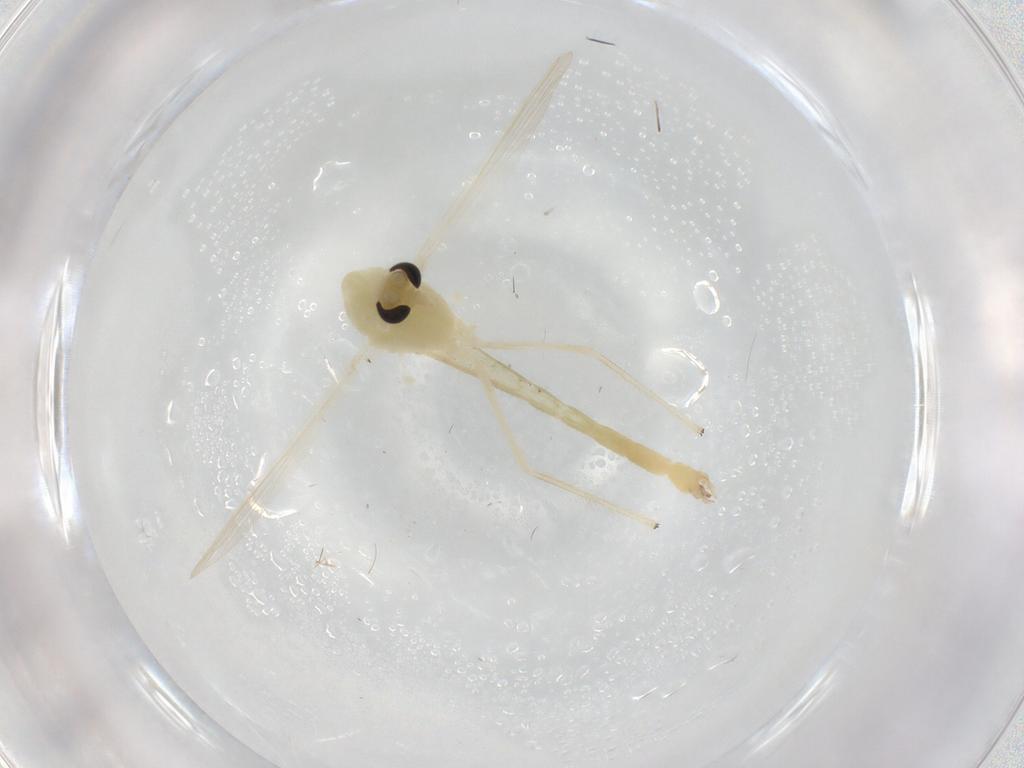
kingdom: Animalia
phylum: Arthropoda
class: Insecta
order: Diptera
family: Chironomidae
